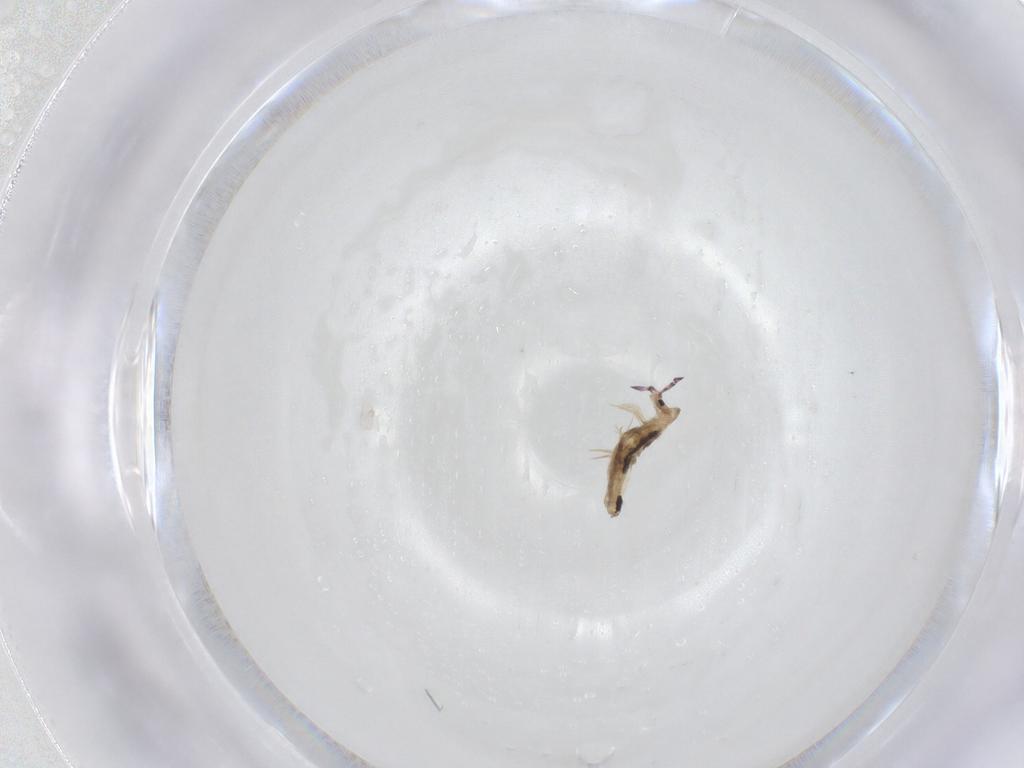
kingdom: Animalia
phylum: Arthropoda
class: Collembola
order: Entomobryomorpha
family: Entomobryidae
